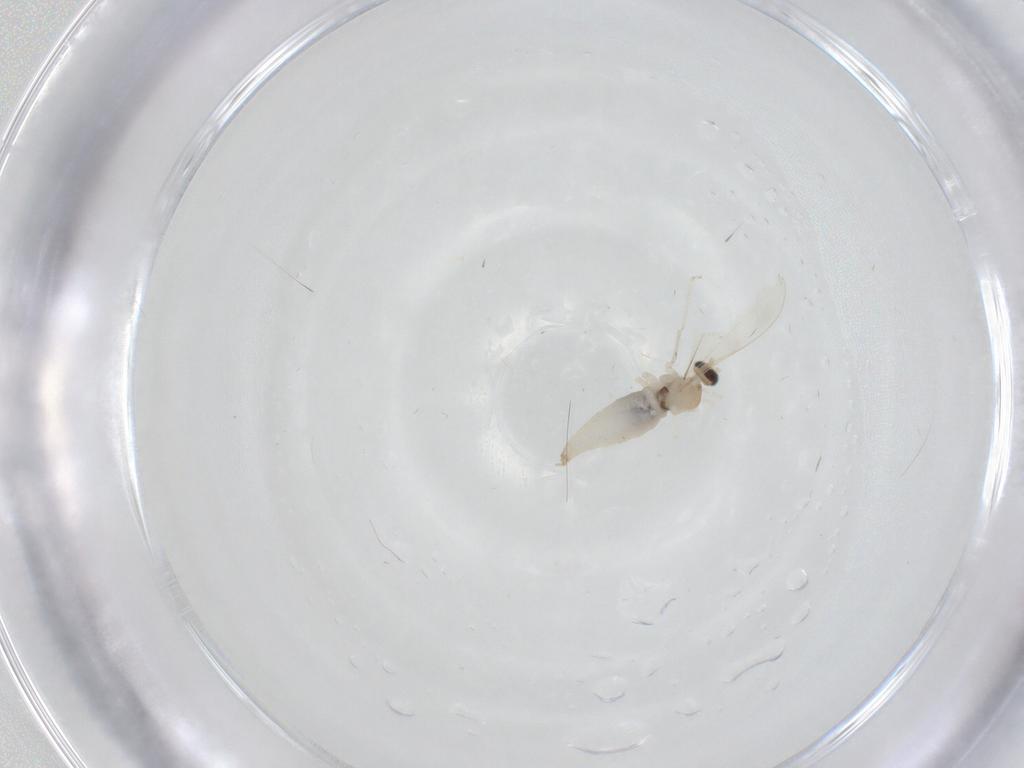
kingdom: Animalia
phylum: Arthropoda
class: Insecta
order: Diptera
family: Cecidomyiidae
